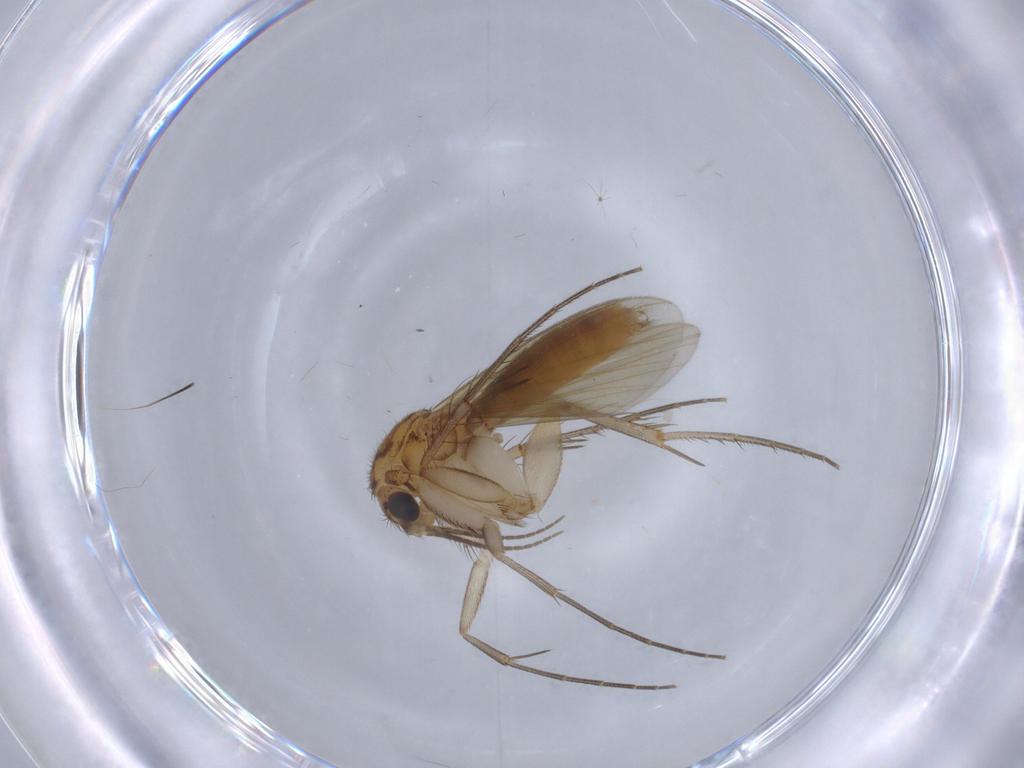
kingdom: Animalia
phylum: Arthropoda
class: Insecta
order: Diptera
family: Mycetophilidae
